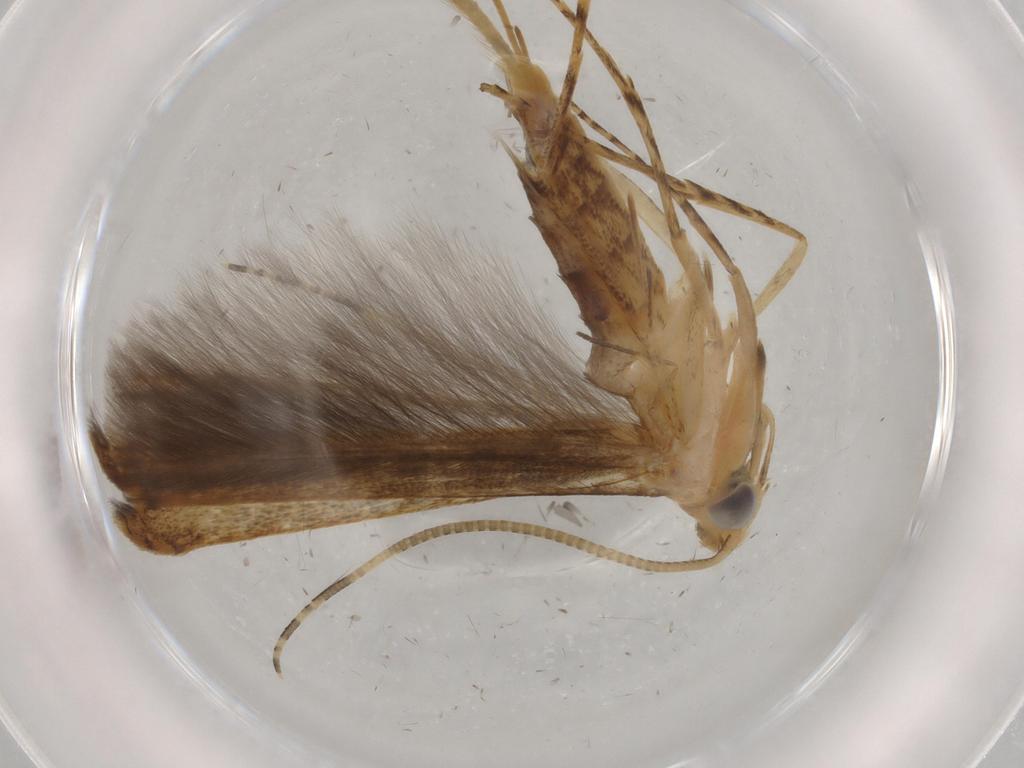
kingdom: Animalia
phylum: Arthropoda
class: Insecta
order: Lepidoptera
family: Batrachedridae
